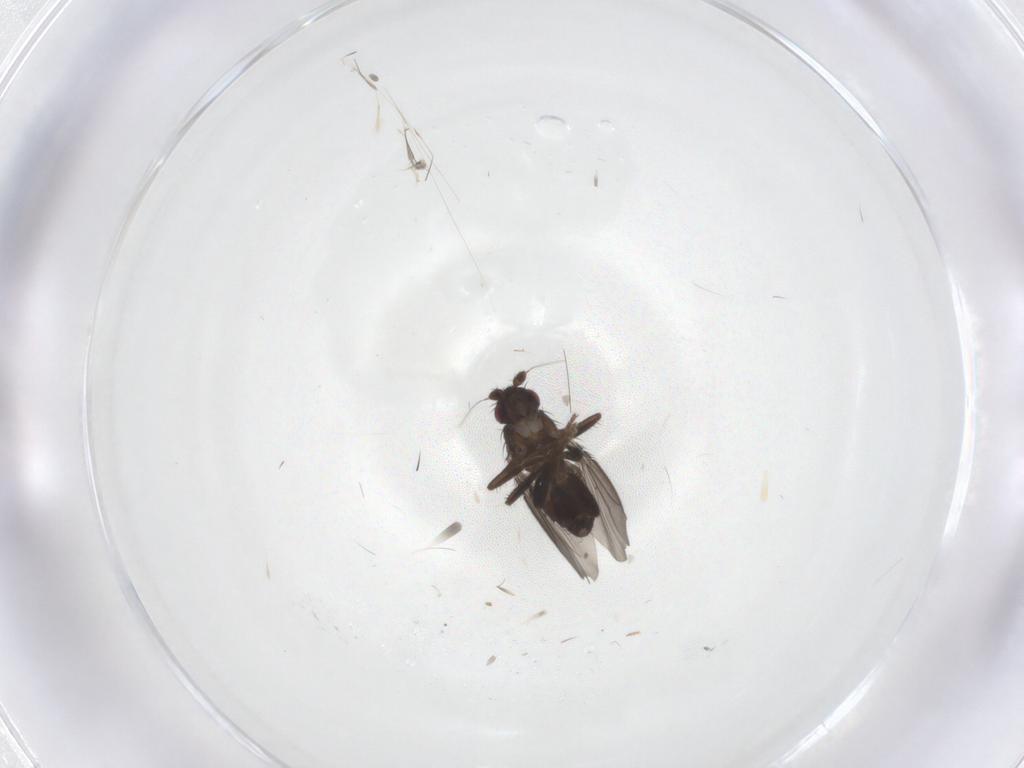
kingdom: Animalia
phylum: Arthropoda
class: Insecta
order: Diptera
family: Sphaeroceridae
